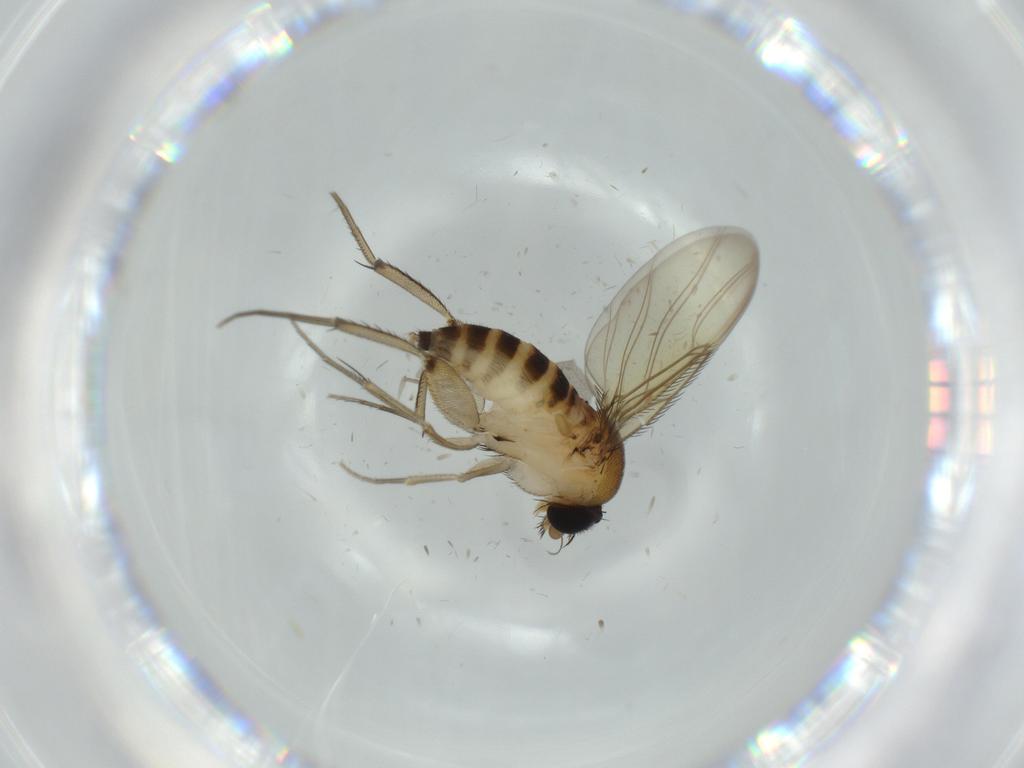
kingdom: Animalia
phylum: Arthropoda
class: Insecta
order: Diptera
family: Phoridae
